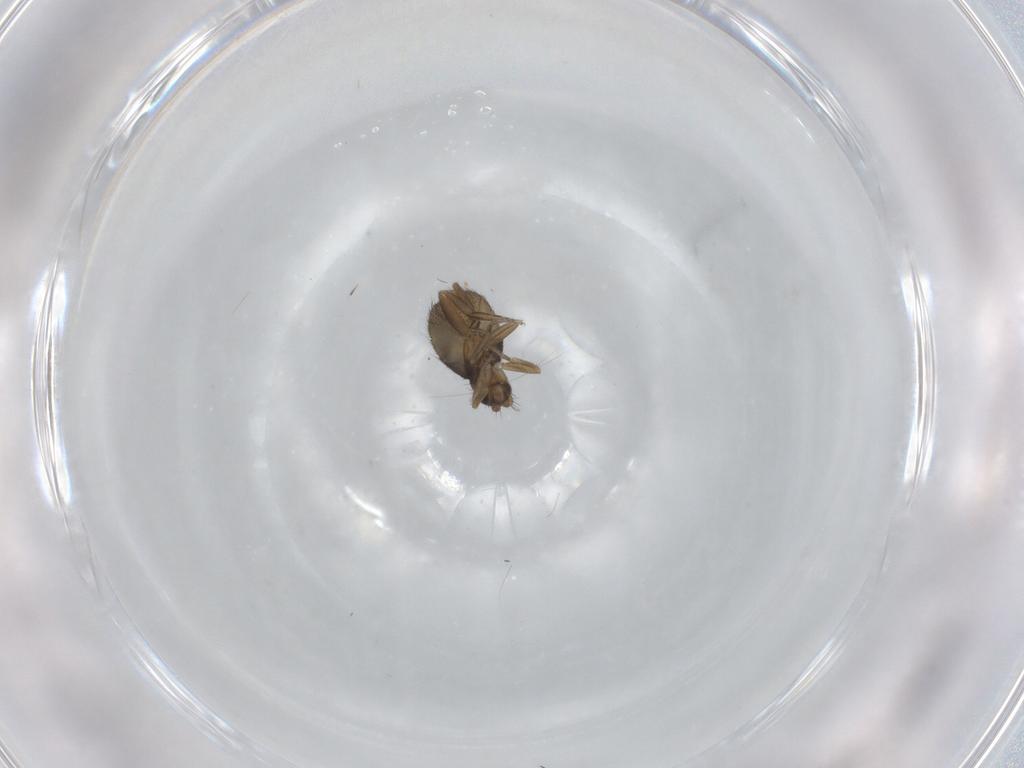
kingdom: Animalia
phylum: Arthropoda
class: Insecta
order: Diptera
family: Phoridae
